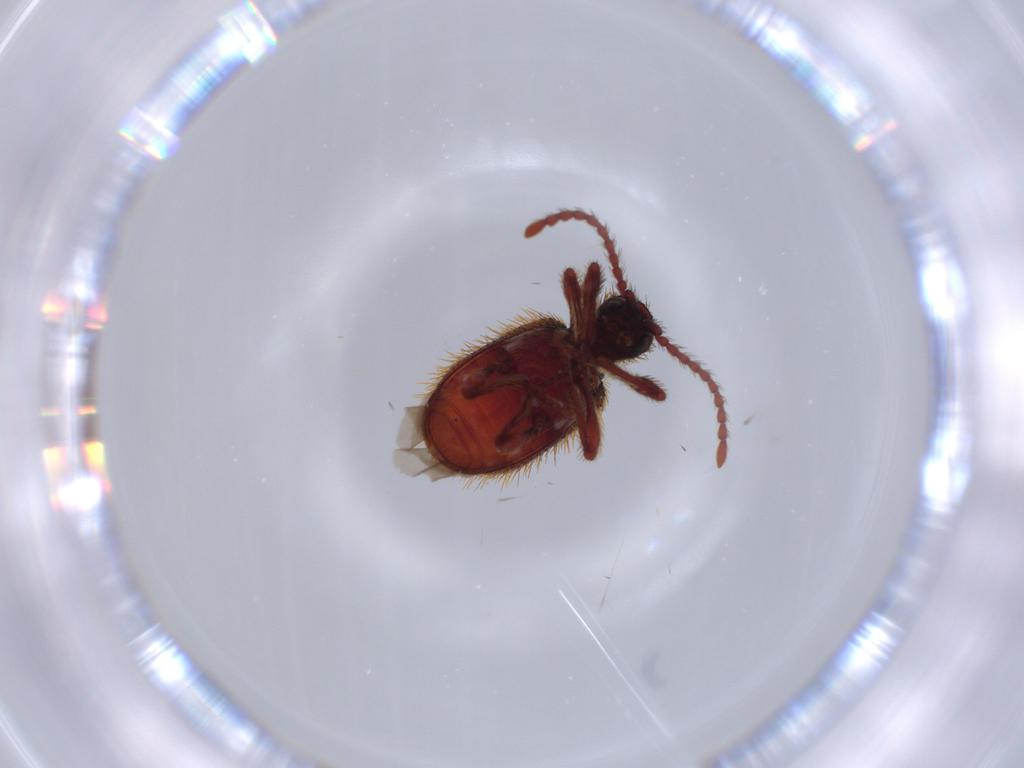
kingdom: Animalia
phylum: Arthropoda
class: Insecta
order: Coleoptera
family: Ptinidae
